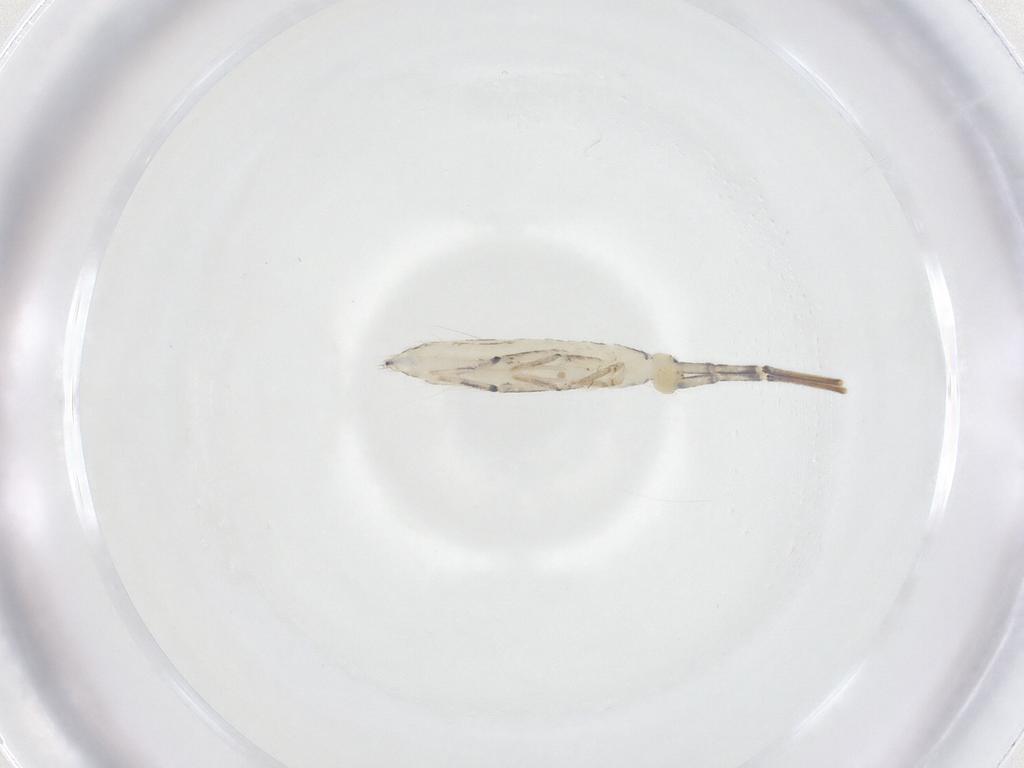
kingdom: Animalia
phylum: Arthropoda
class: Collembola
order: Entomobryomorpha
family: Entomobryidae
